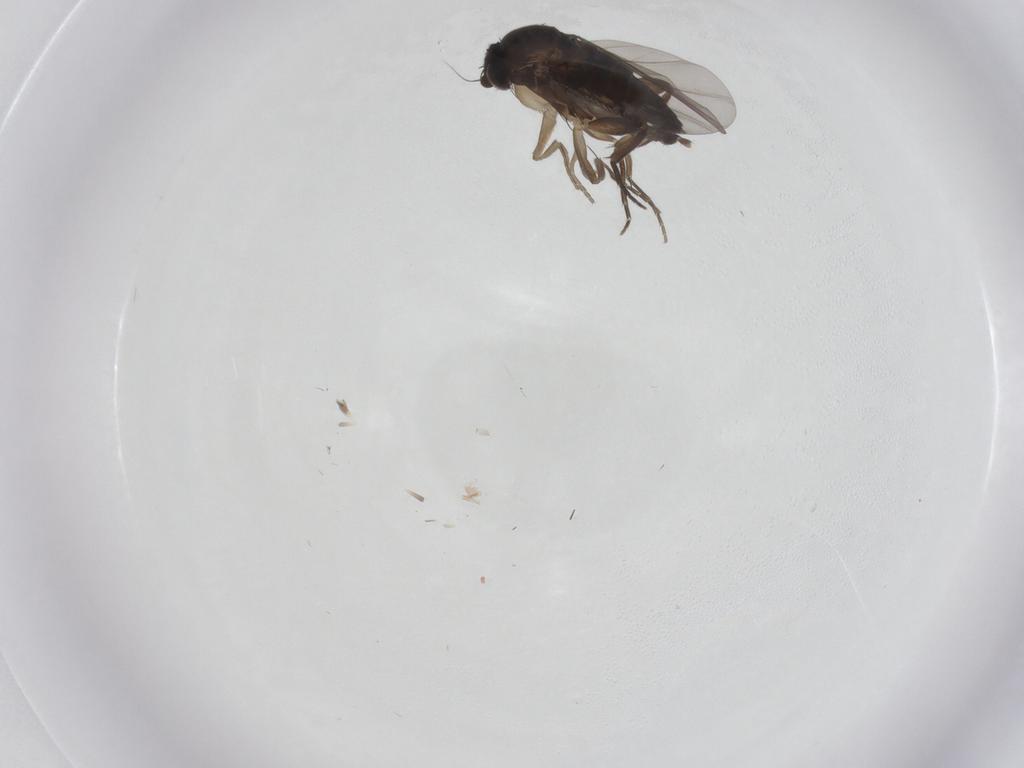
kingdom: Animalia
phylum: Arthropoda
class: Insecta
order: Diptera
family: Phoridae
